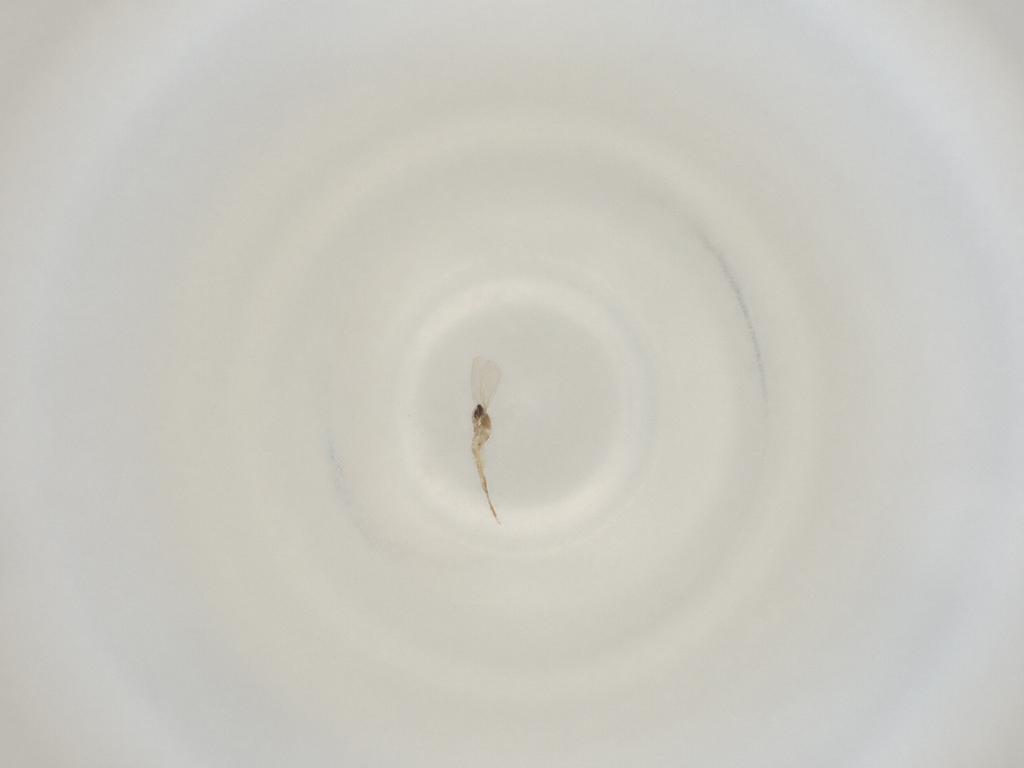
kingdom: Animalia
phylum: Arthropoda
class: Insecta
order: Diptera
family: Cecidomyiidae
